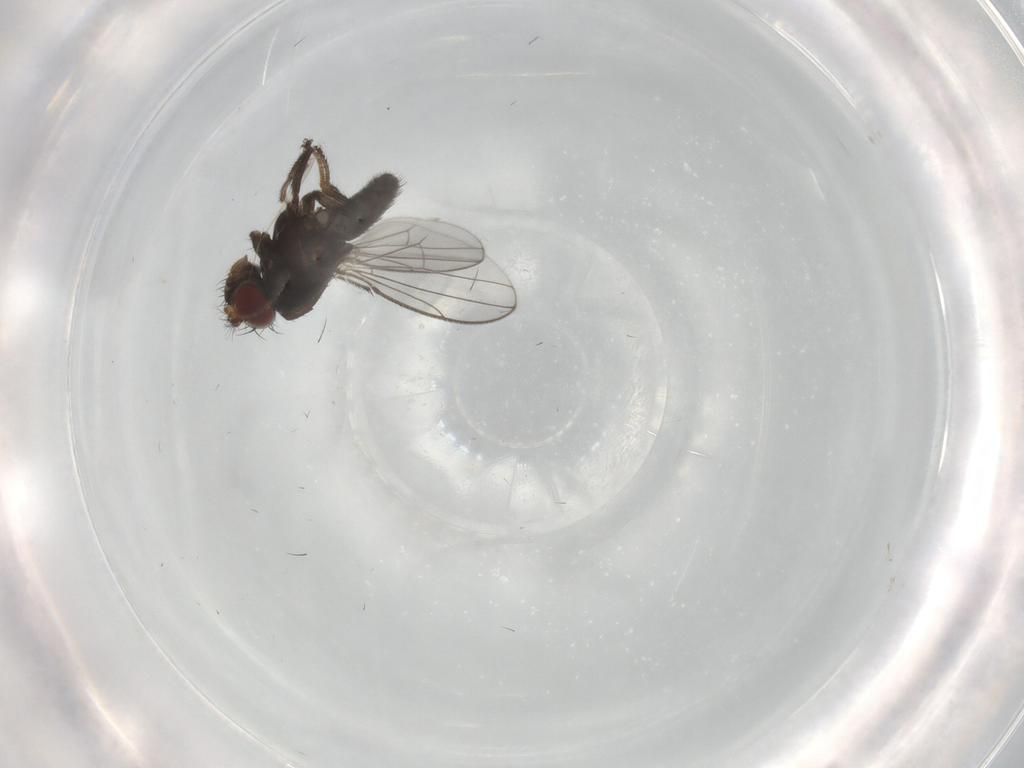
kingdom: Animalia
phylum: Arthropoda
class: Insecta
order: Diptera
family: Ephydridae
